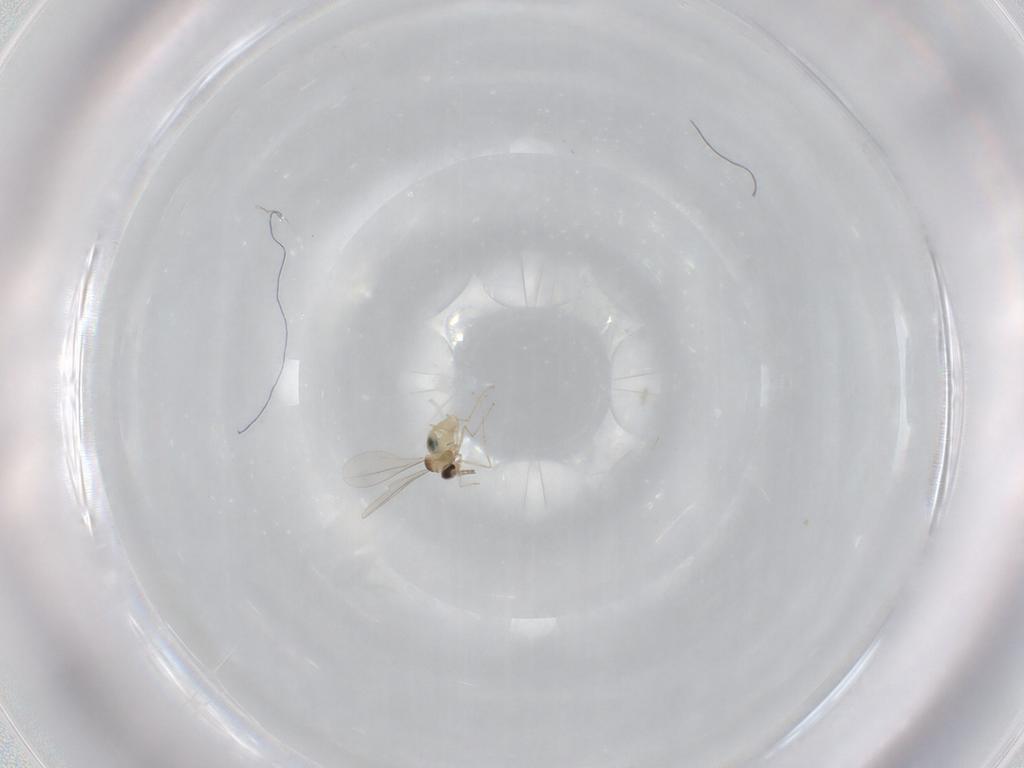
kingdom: Animalia
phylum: Arthropoda
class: Insecta
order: Diptera
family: Cecidomyiidae
